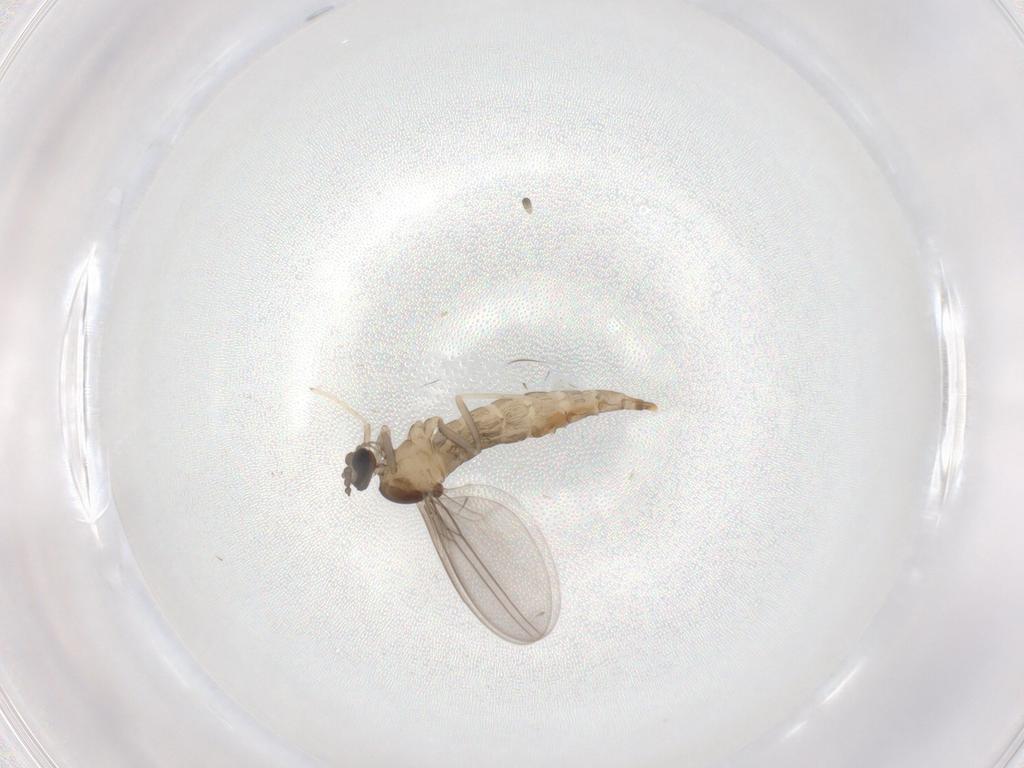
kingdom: Animalia
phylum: Arthropoda
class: Insecta
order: Diptera
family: Cecidomyiidae
